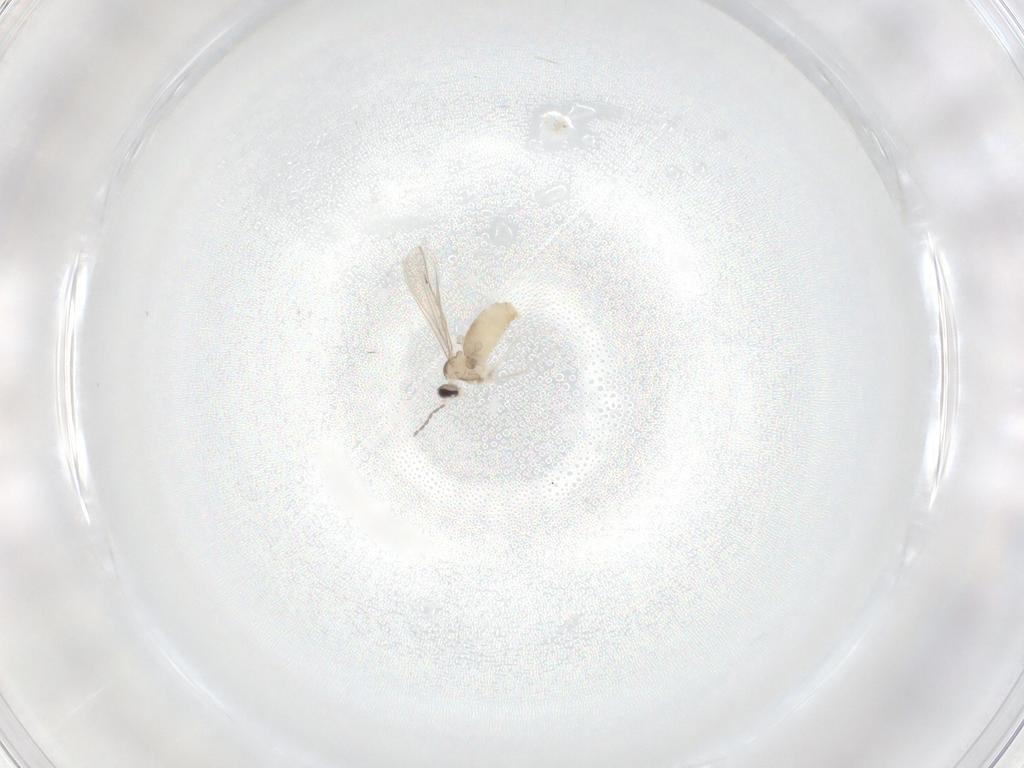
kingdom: Animalia
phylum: Arthropoda
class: Insecta
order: Diptera
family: Cecidomyiidae
